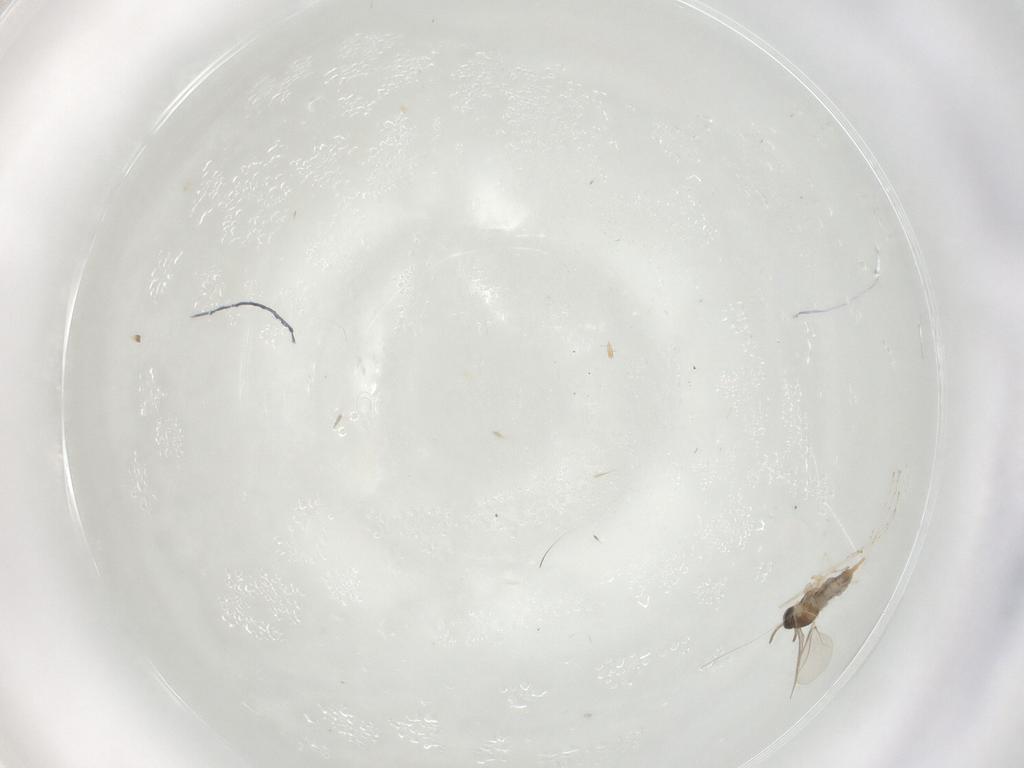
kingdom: Animalia
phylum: Arthropoda
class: Insecta
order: Diptera
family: Cecidomyiidae
